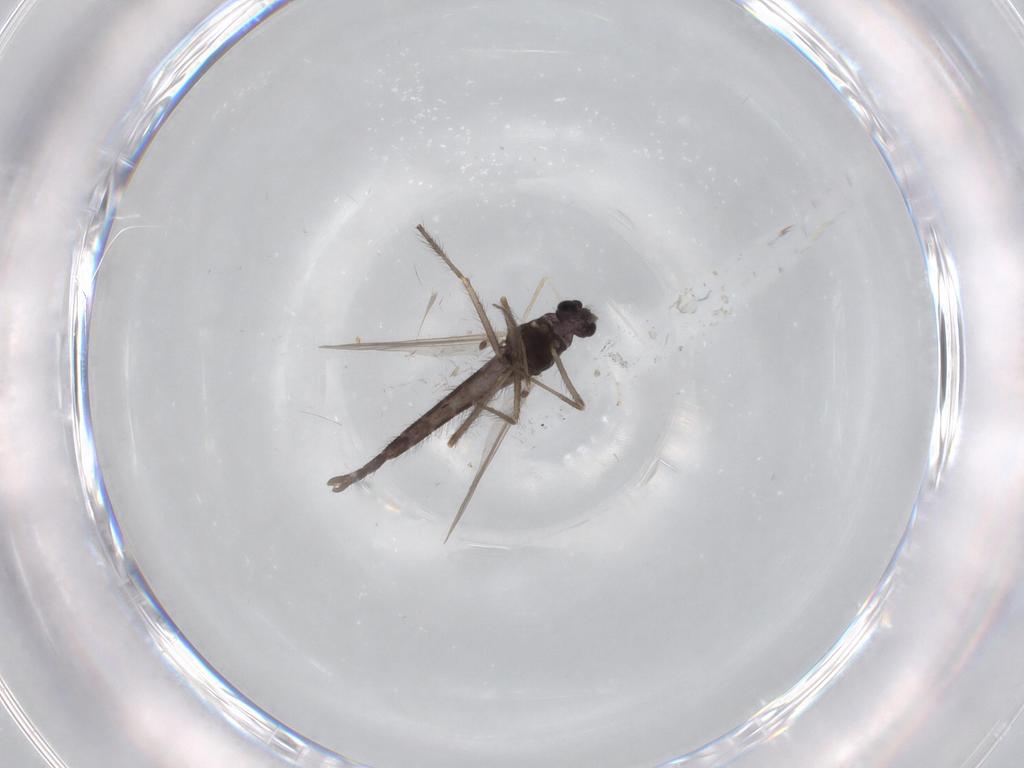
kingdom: Animalia
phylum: Arthropoda
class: Insecta
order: Diptera
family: Chironomidae
